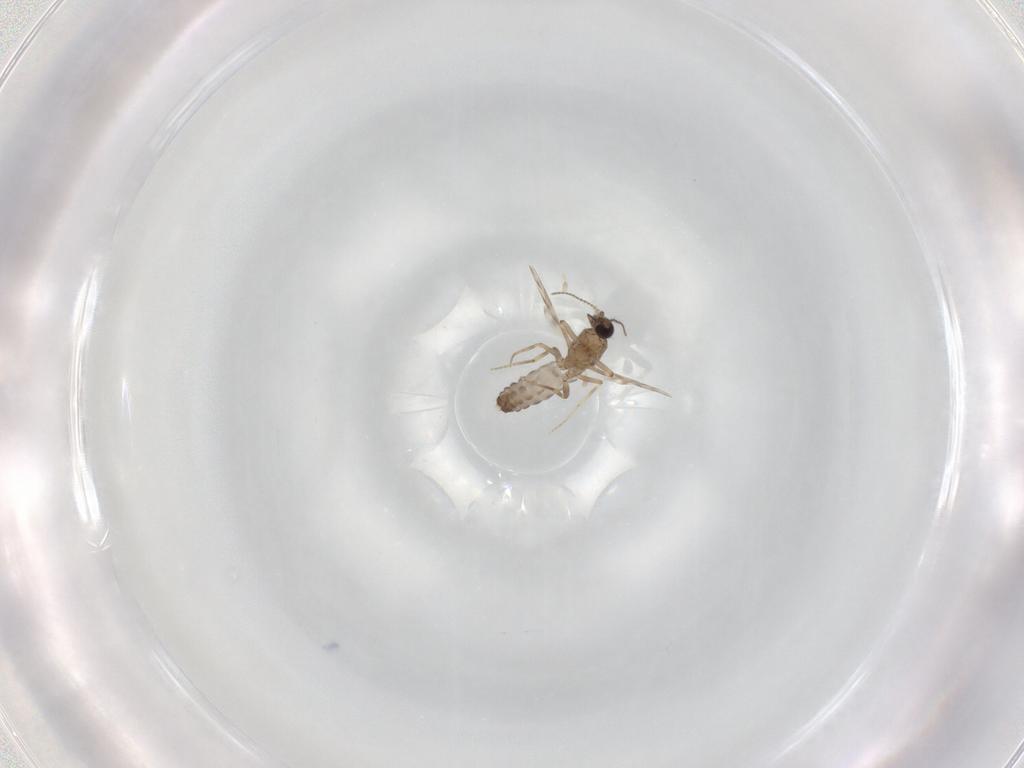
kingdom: Animalia
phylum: Arthropoda
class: Insecta
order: Diptera
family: Ceratopogonidae
